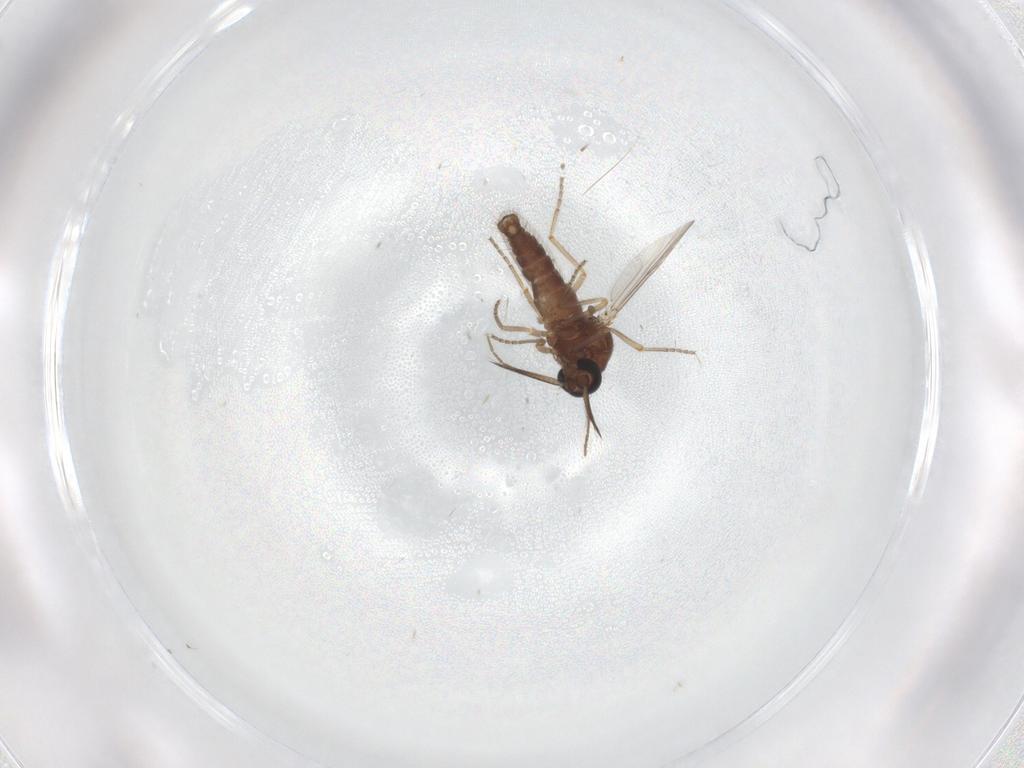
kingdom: Animalia
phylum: Arthropoda
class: Insecta
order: Diptera
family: Ceratopogonidae
